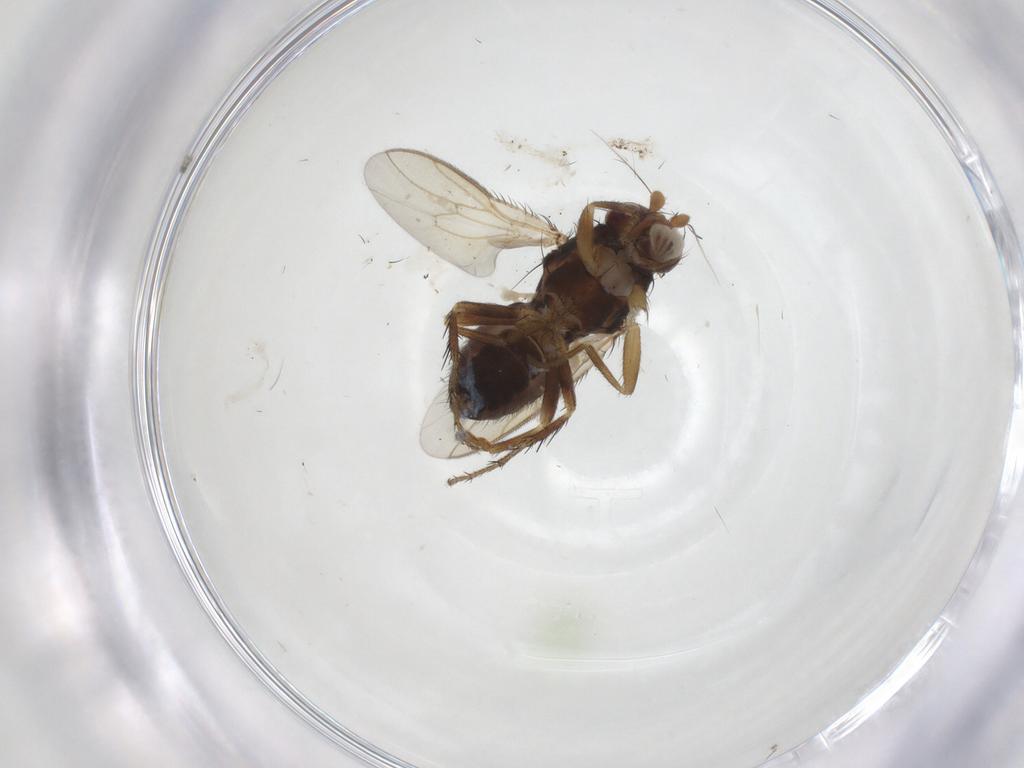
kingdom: Animalia
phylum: Arthropoda
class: Insecta
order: Diptera
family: Sphaeroceridae
